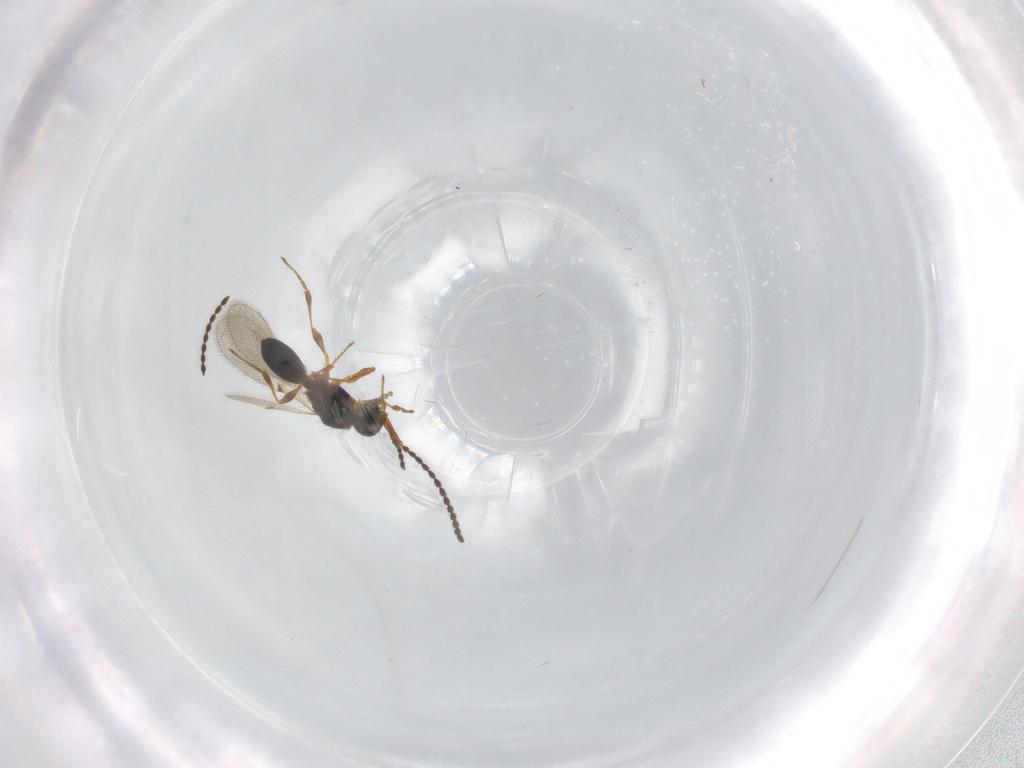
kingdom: Animalia
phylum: Arthropoda
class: Insecta
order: Hymenoptera
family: Diapriidae
